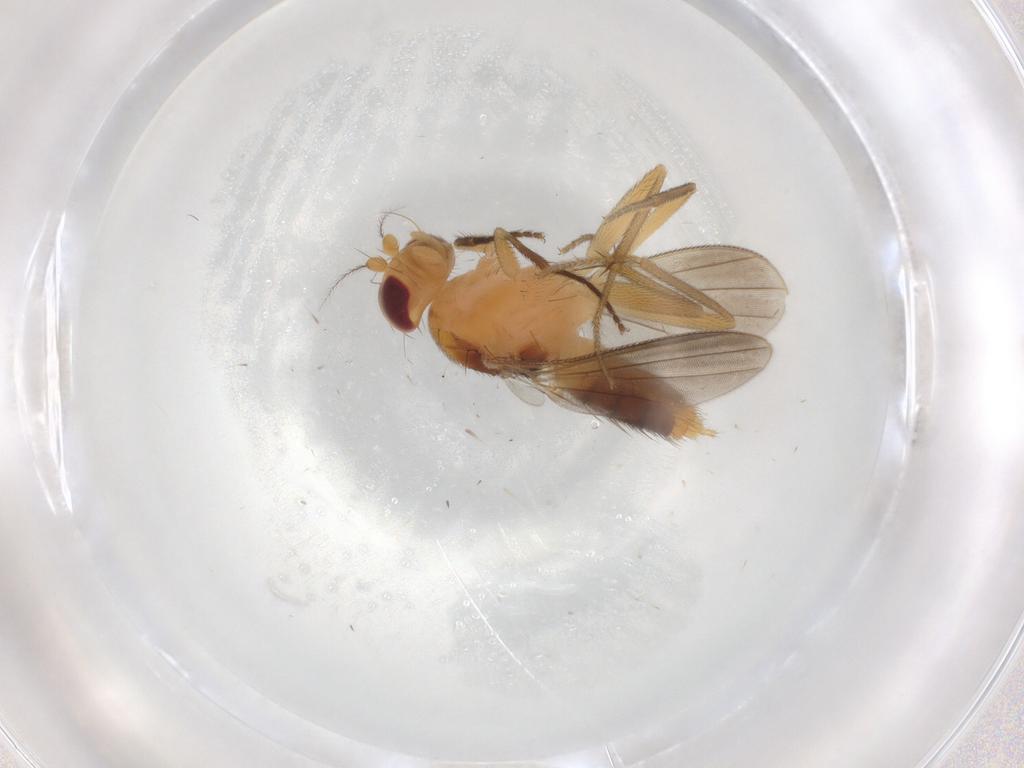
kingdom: Animalia
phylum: Arthropoda
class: Insecta
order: Diptera
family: Clusiidae
